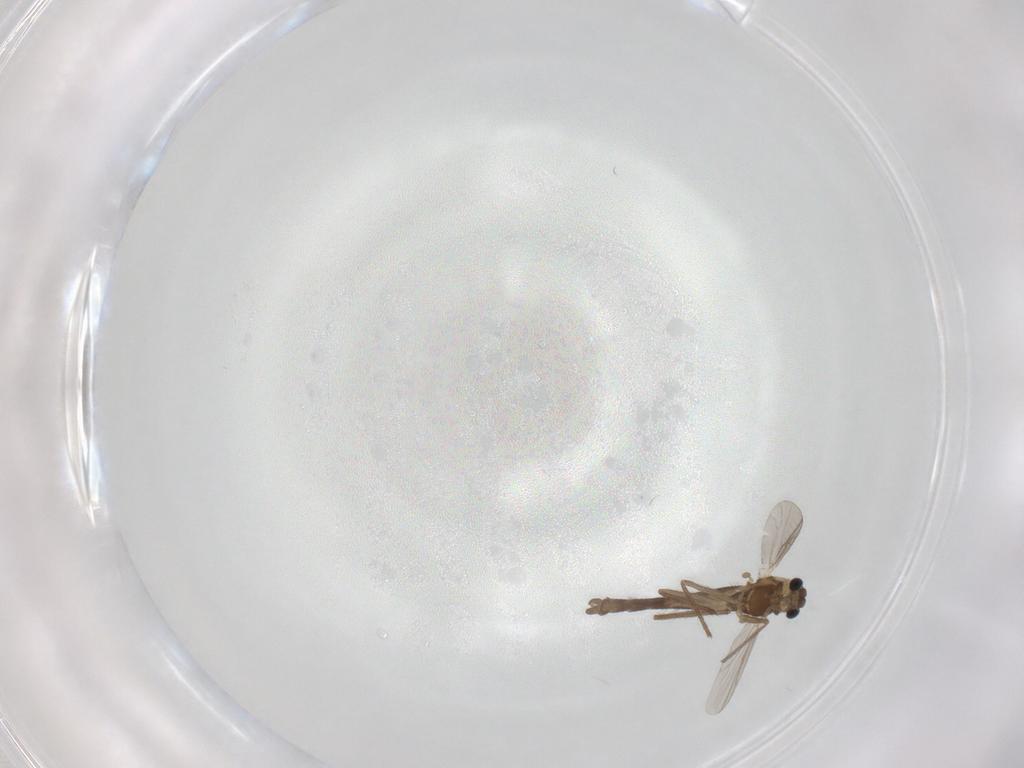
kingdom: Animalia
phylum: Arthropoda
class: Insecta
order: Diptera
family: Chironomidae
